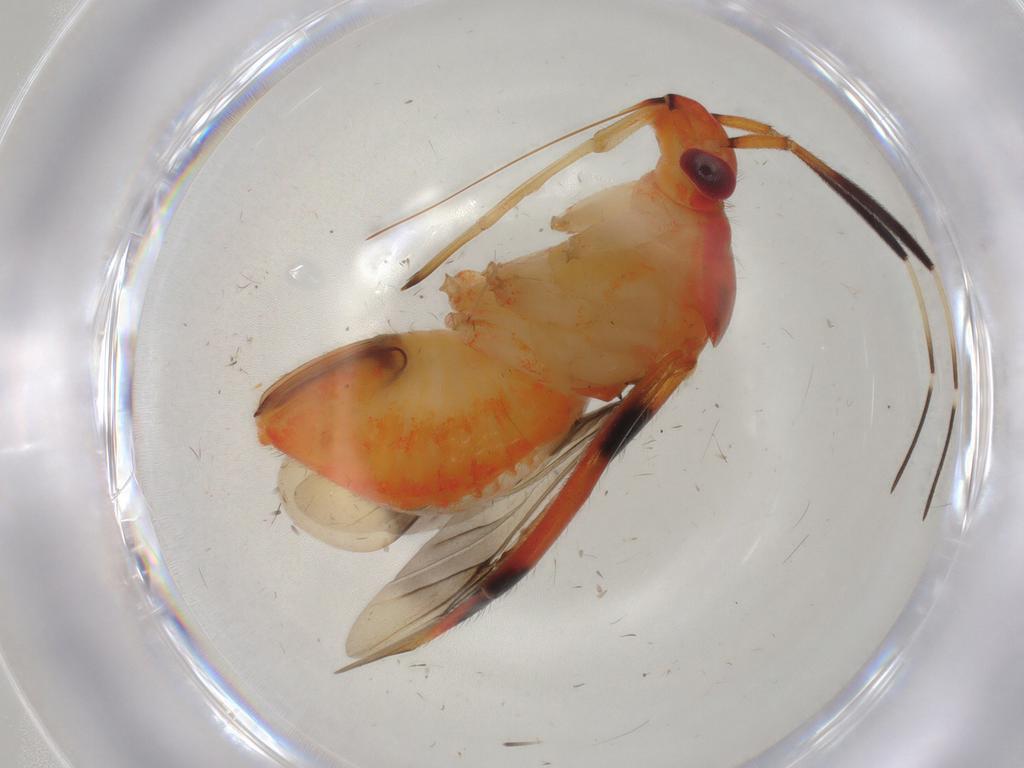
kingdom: Animalia
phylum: Arthropoda
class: Insecta
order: Hemiptera
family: Miridae
